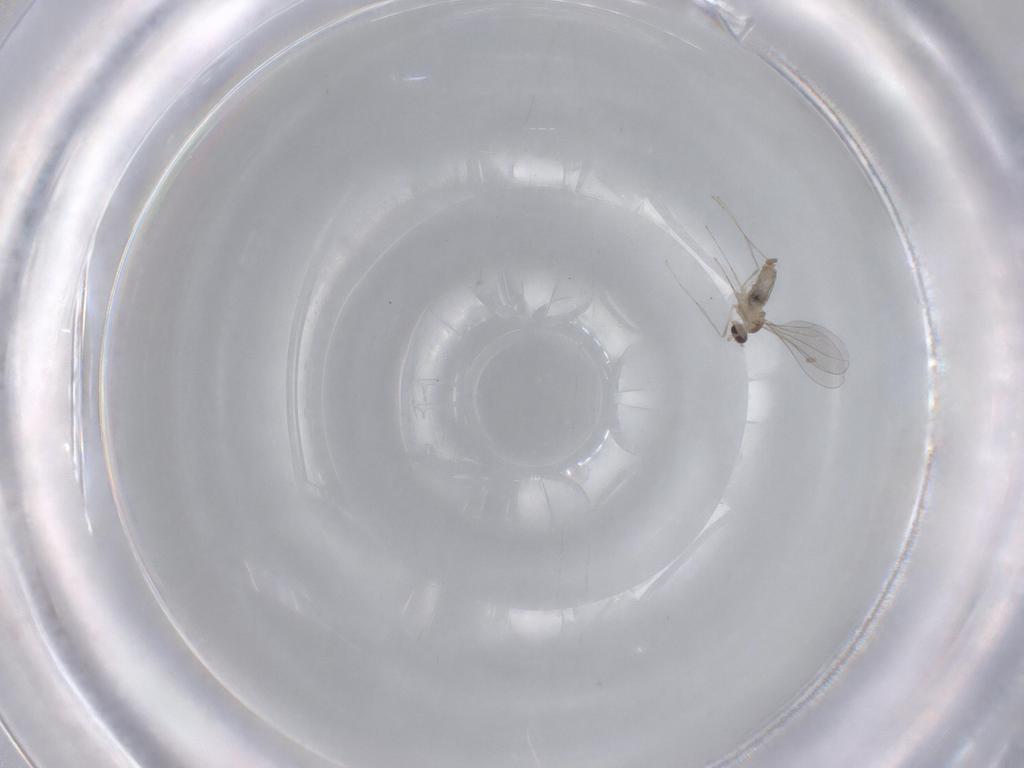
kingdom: Animalia
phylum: Arthropoda
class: Insecta
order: Diptera
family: Cecidomyiidae
